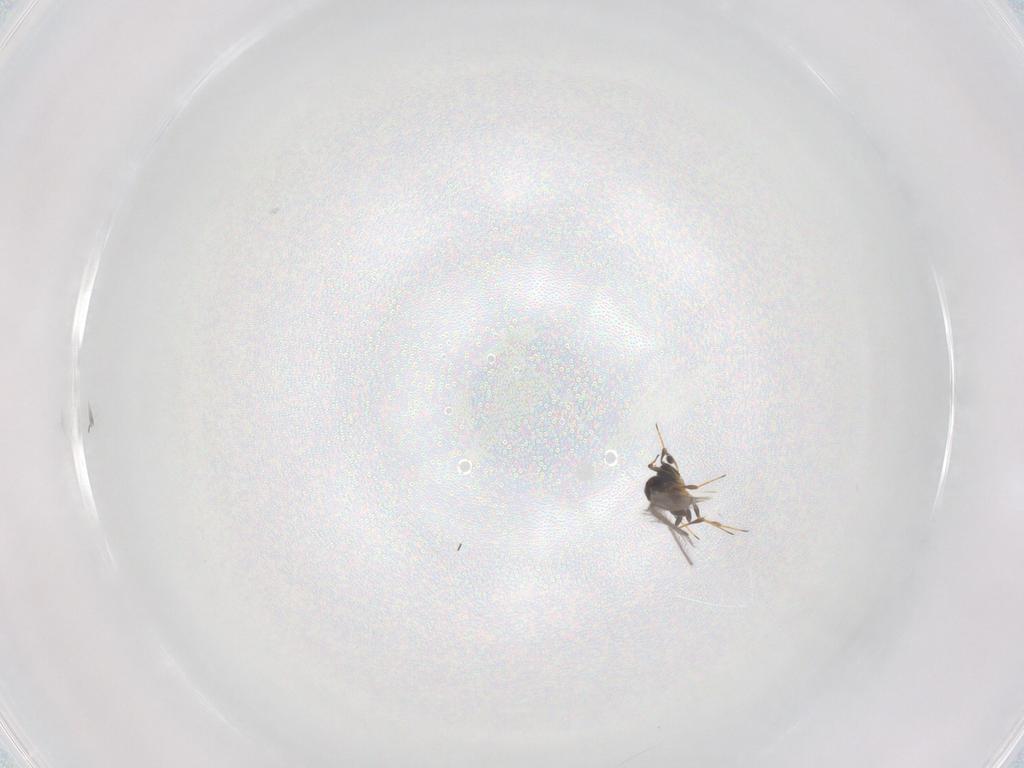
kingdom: Animalia
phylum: Arthropoda
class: Insecta
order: Hymenoptera
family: Platygastridae
